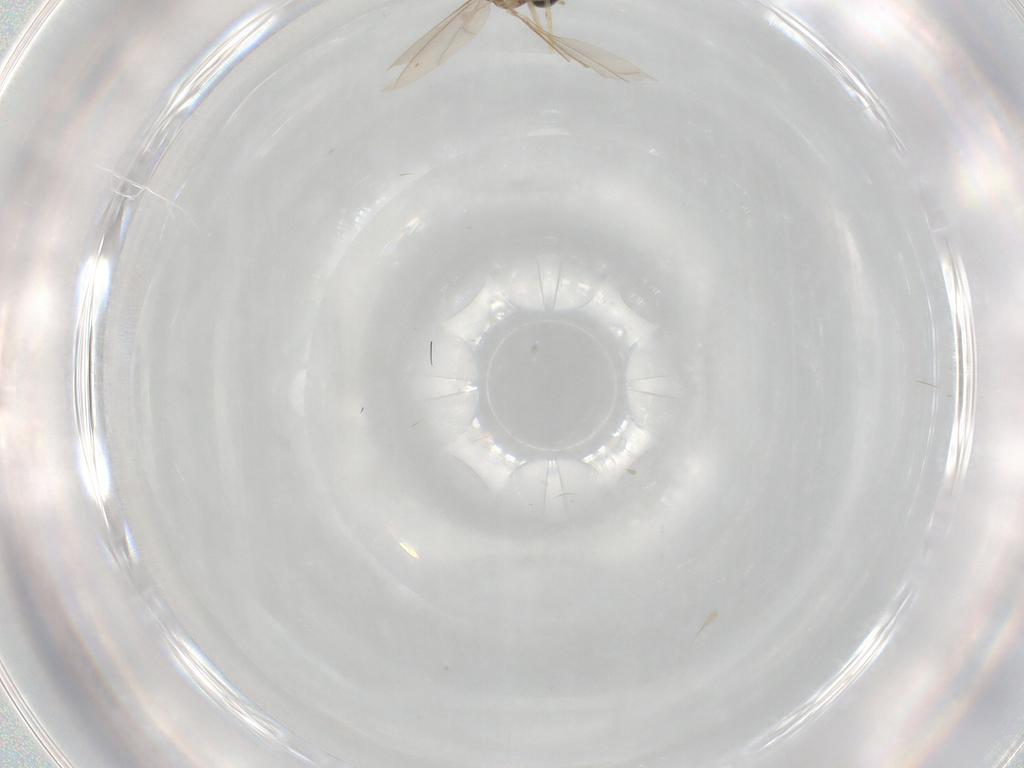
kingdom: Animalia
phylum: Arthropoda
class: Insecta
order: Diptera
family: Cecidomyiidae
